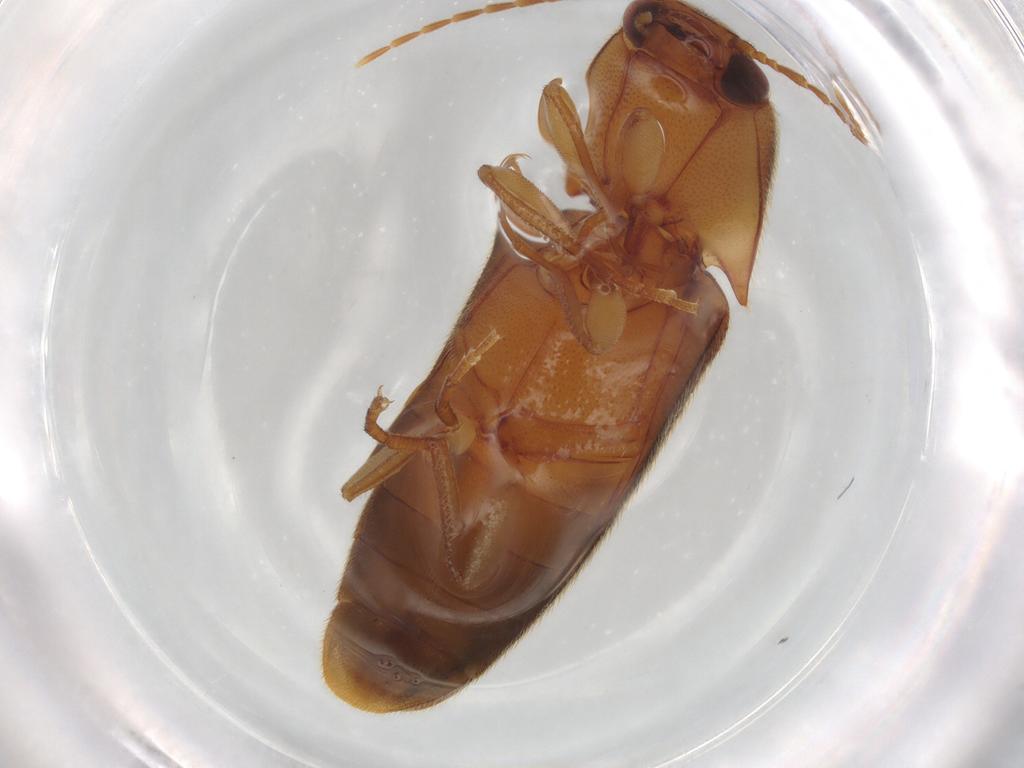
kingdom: Animalia
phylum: Arthropoda
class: Insecta
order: Coleoptera
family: Elateridae
